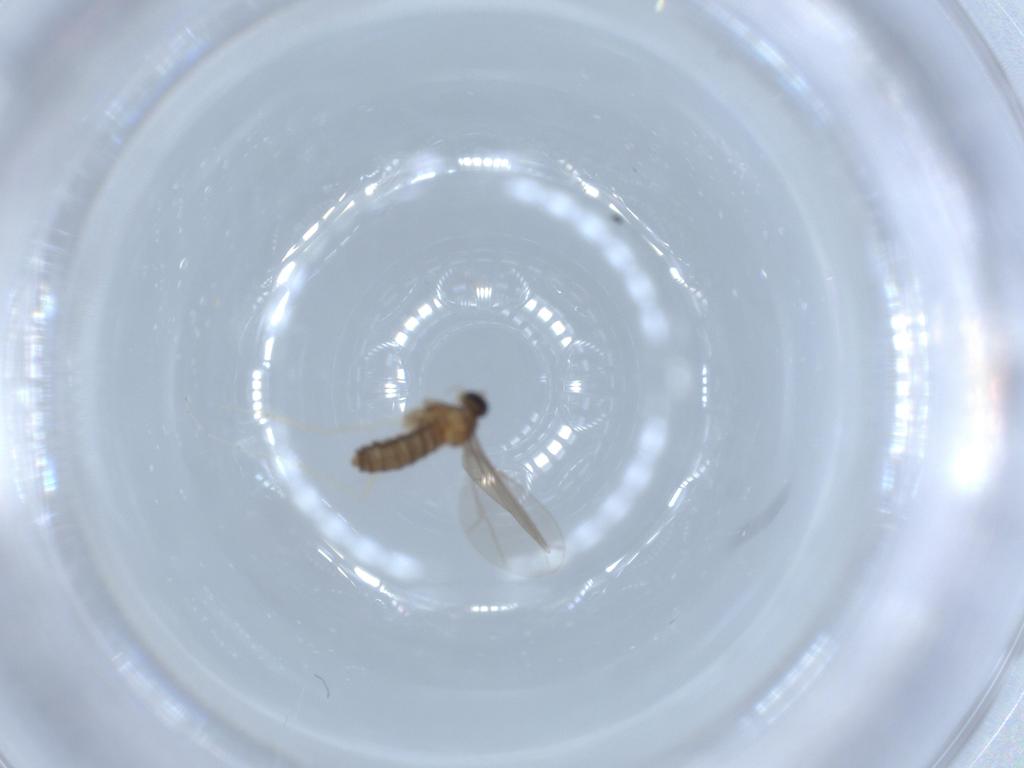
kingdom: Animalia
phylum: Arthropoda
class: Insecta
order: Diptera
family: Cecidomyiidae
